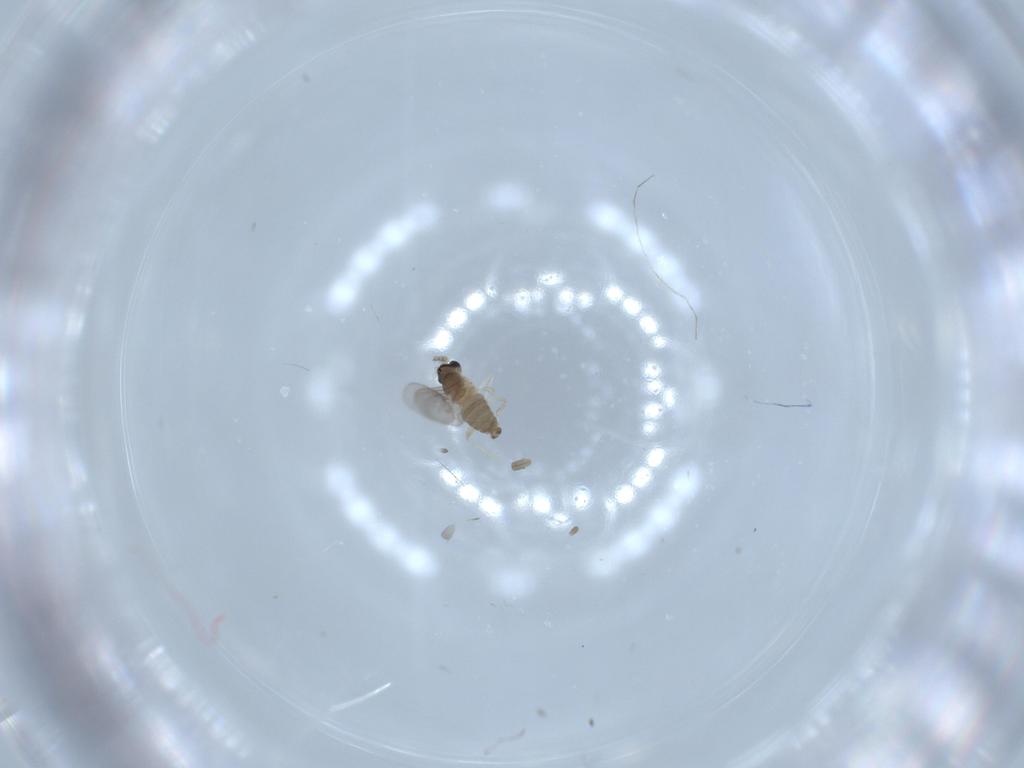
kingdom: Animalia
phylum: Arthropoda
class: Insecta
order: Diptera
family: Cecidomyiidae
